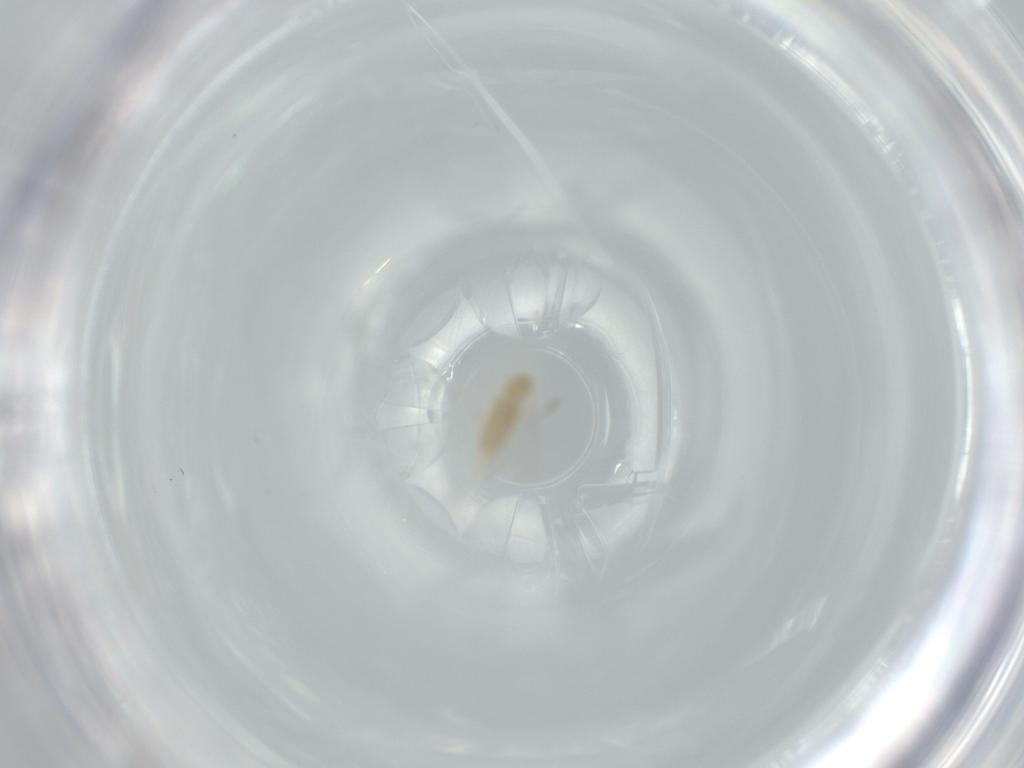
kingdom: Animalia
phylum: Arthropoda
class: Insecta
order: Diptera
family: Cecidomyiidae
